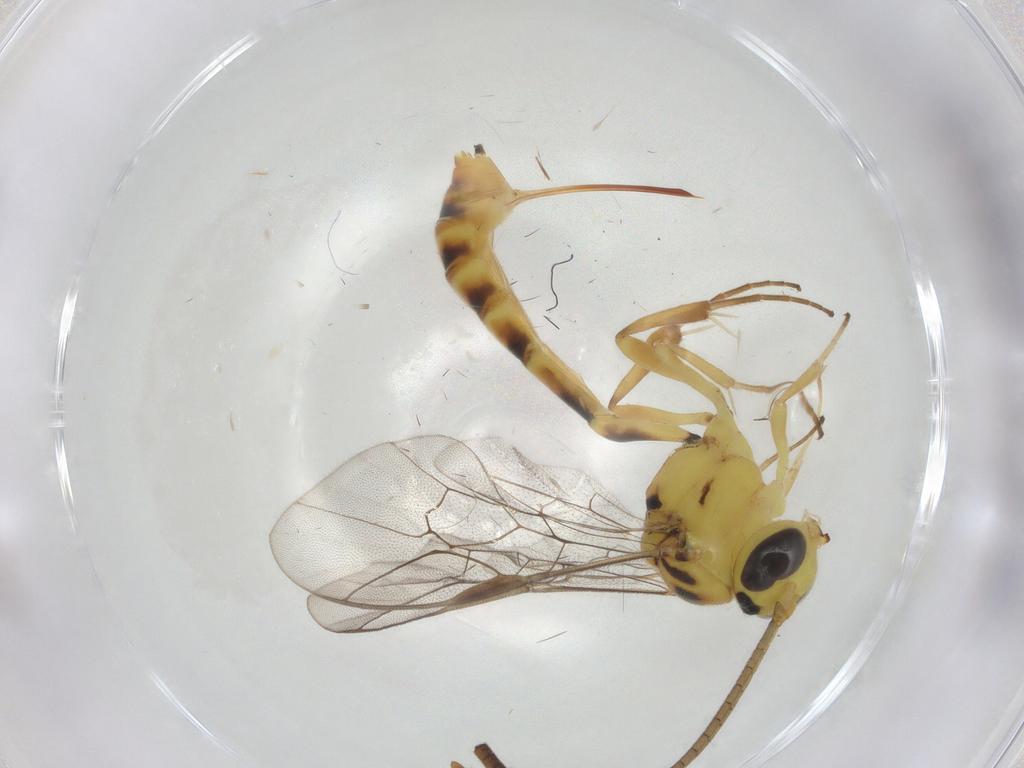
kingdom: Animalia
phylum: Arthropoda
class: Insecta
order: Hymenoptera
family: Ichneumonidae
